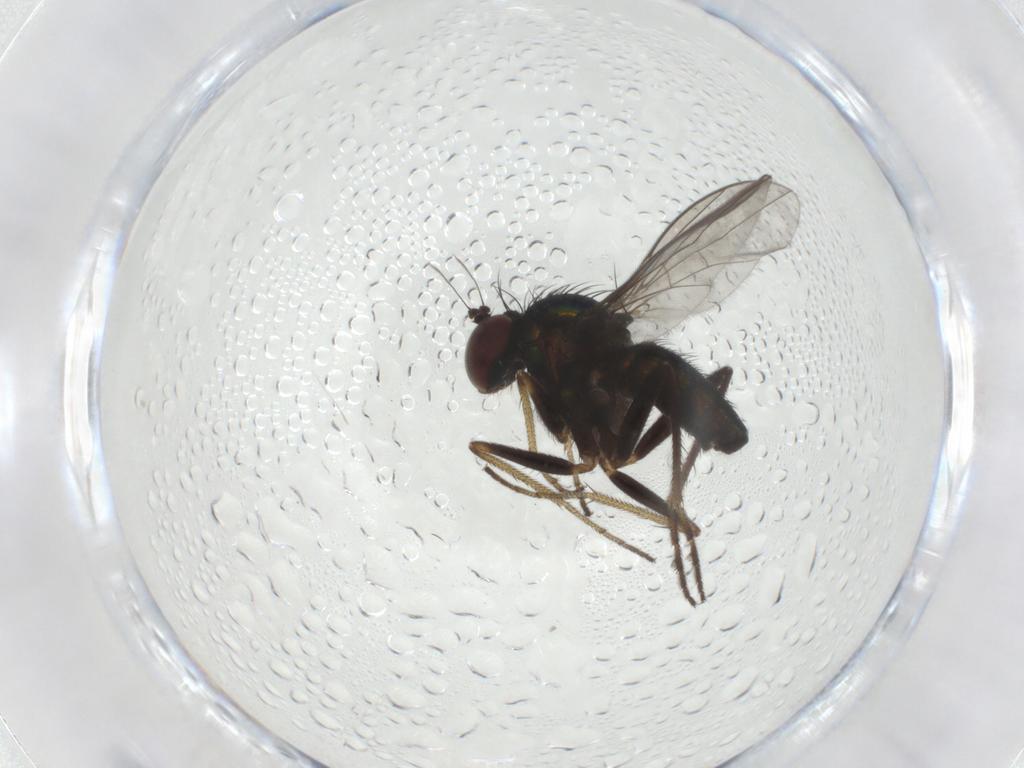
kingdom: Animalia
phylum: Arthropoda
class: Insecta
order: Diptera
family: Dolichopodidae
